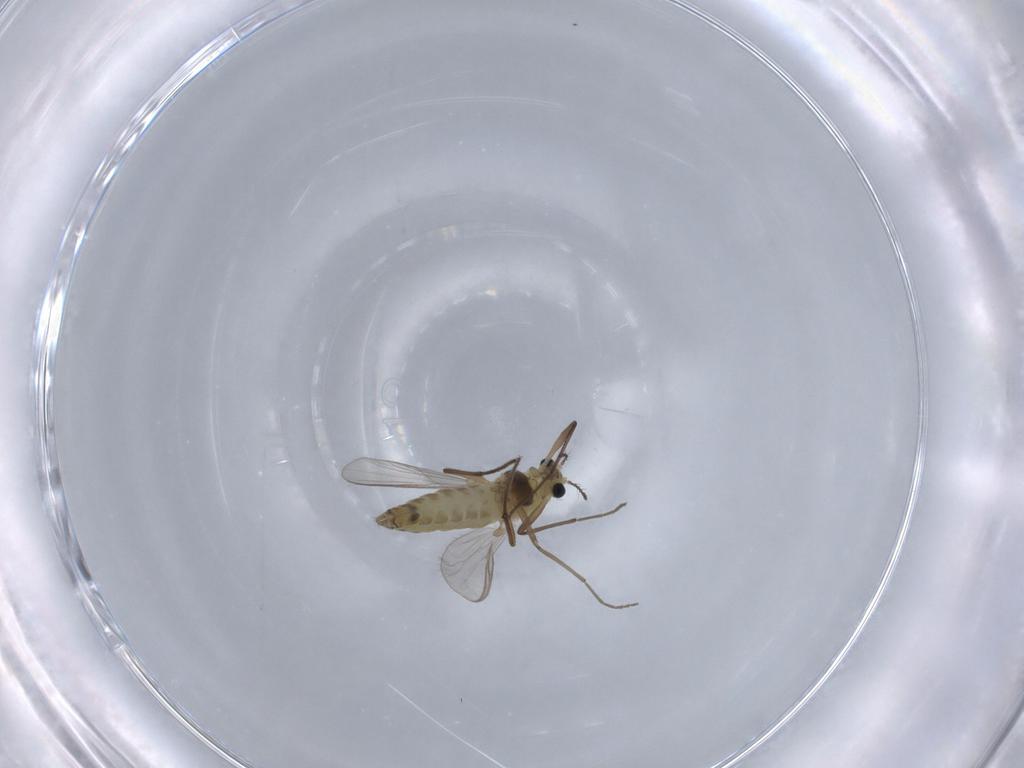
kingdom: Animalia
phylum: Arthropoda
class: Insecta
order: Diptera
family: Chironomidae
